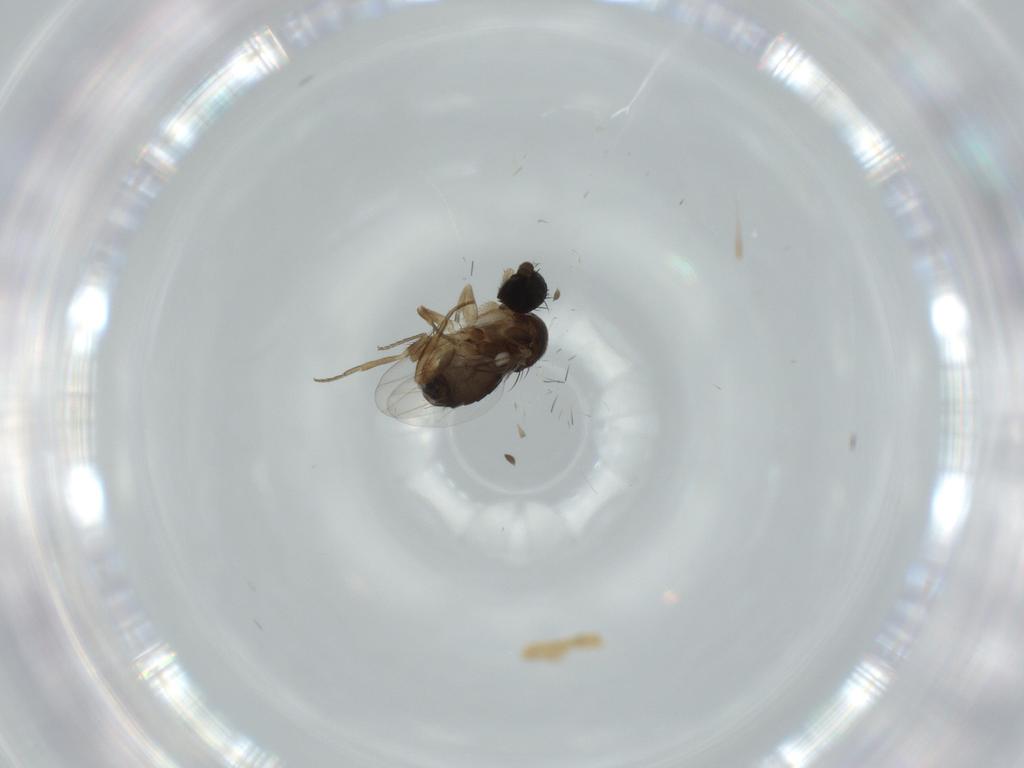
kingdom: Animalia
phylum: Arthropoda
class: Insecta
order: Diptera
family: Phoridae
